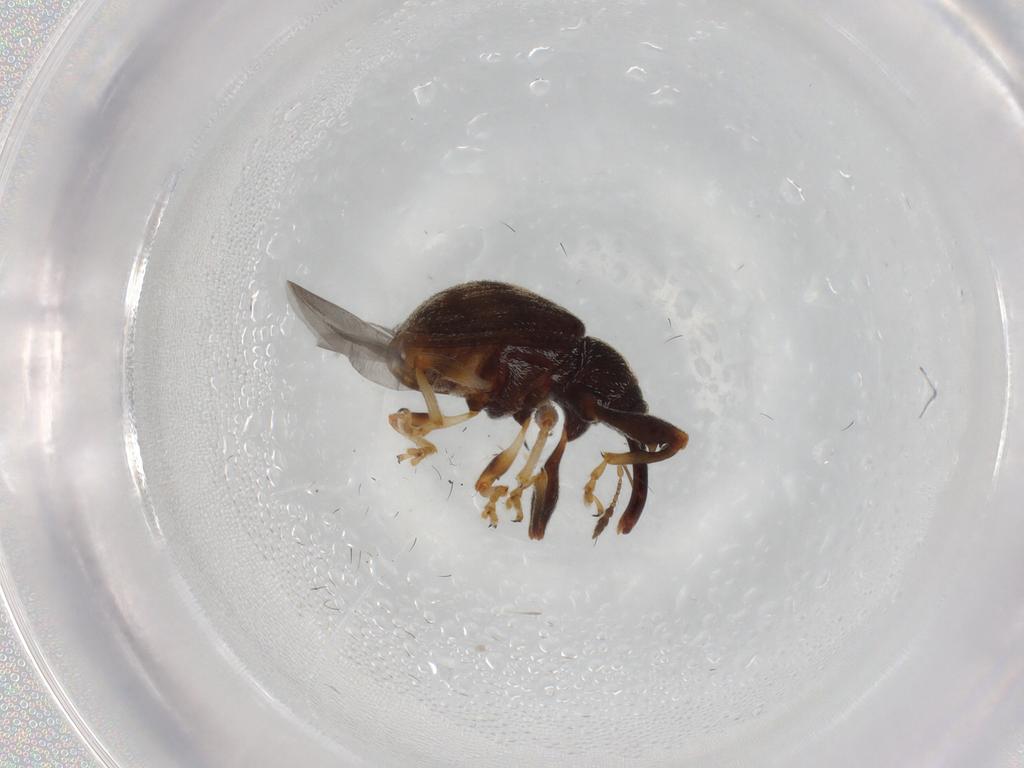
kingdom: Animalia
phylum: Arthropoda
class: Insecta
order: Coleoptera
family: Curculionidae
